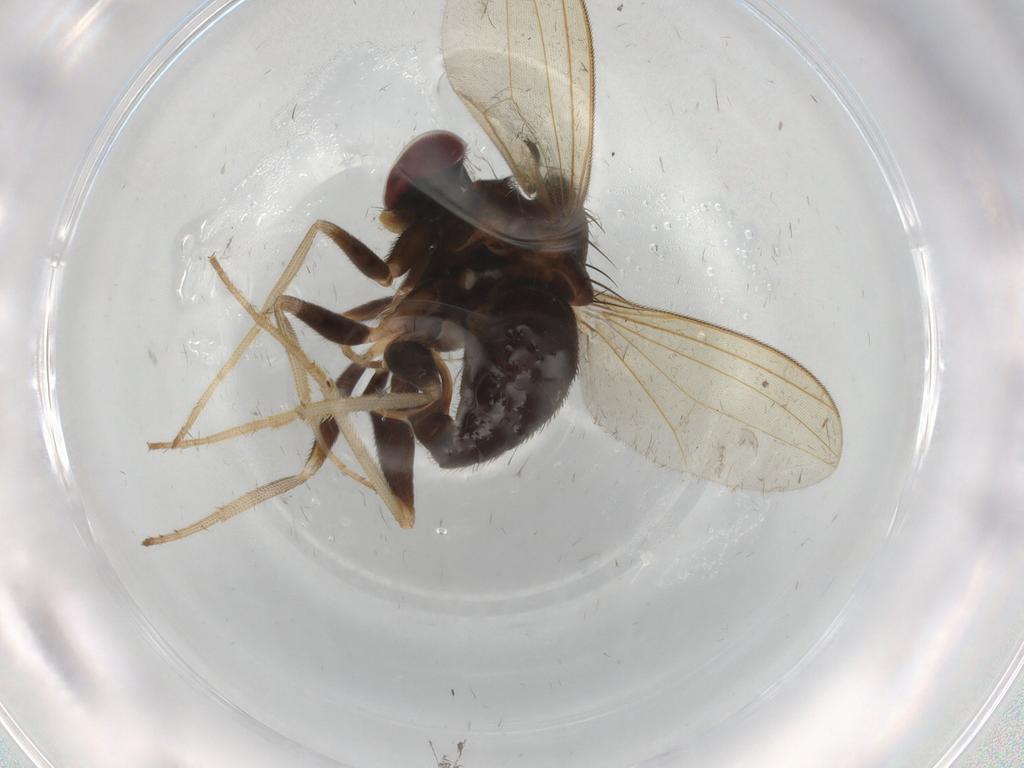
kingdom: Animalia
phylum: Arthropoda
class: Insecta
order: Diptera
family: Dolichopodidae
